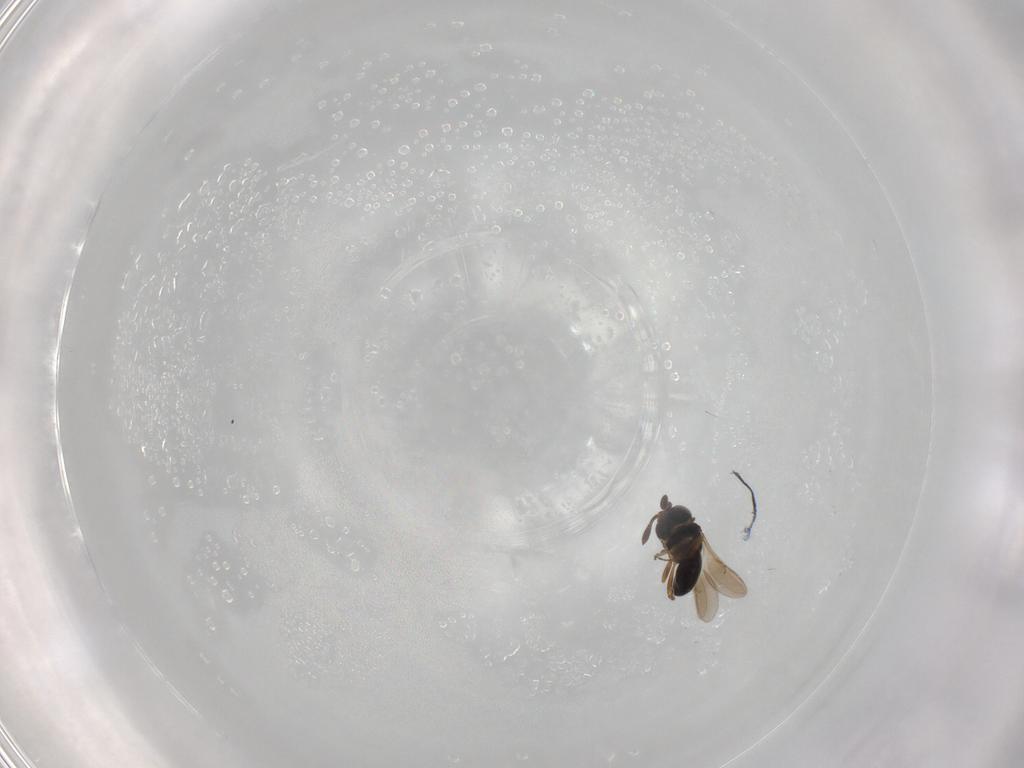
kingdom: Animalia
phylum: Arthropoda
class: Insecta
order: Hymenoptera
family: Scelionidae
